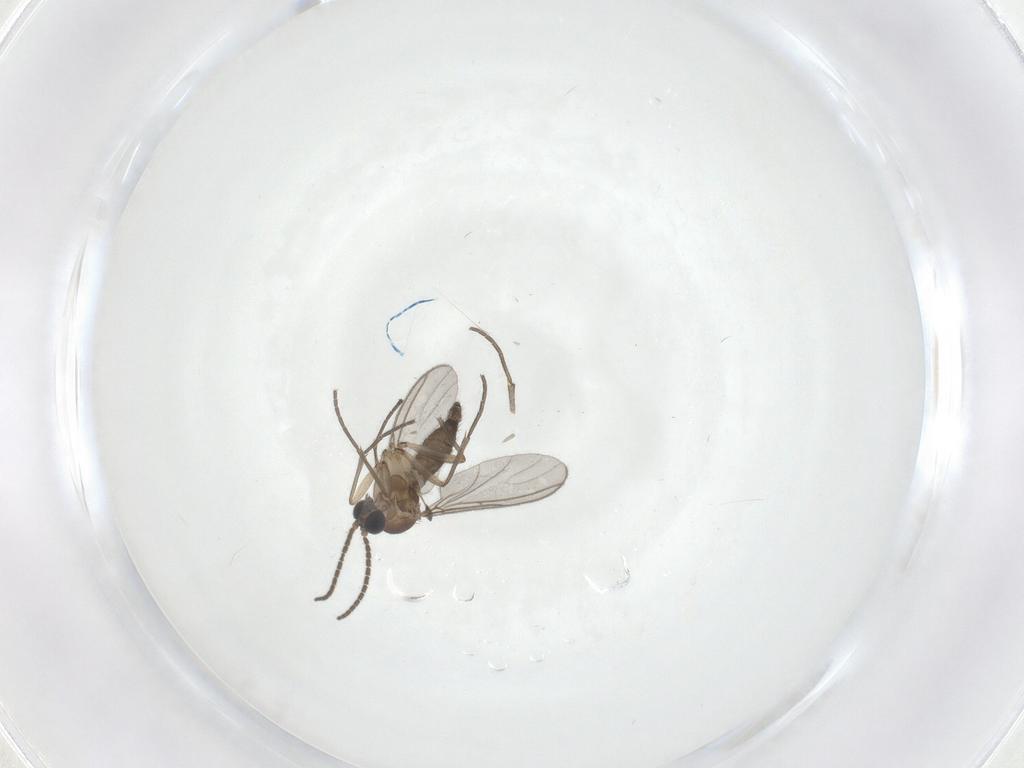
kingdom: Animalia
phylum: Arthropoda
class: Insecta
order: Diptera
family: Sciaridae
